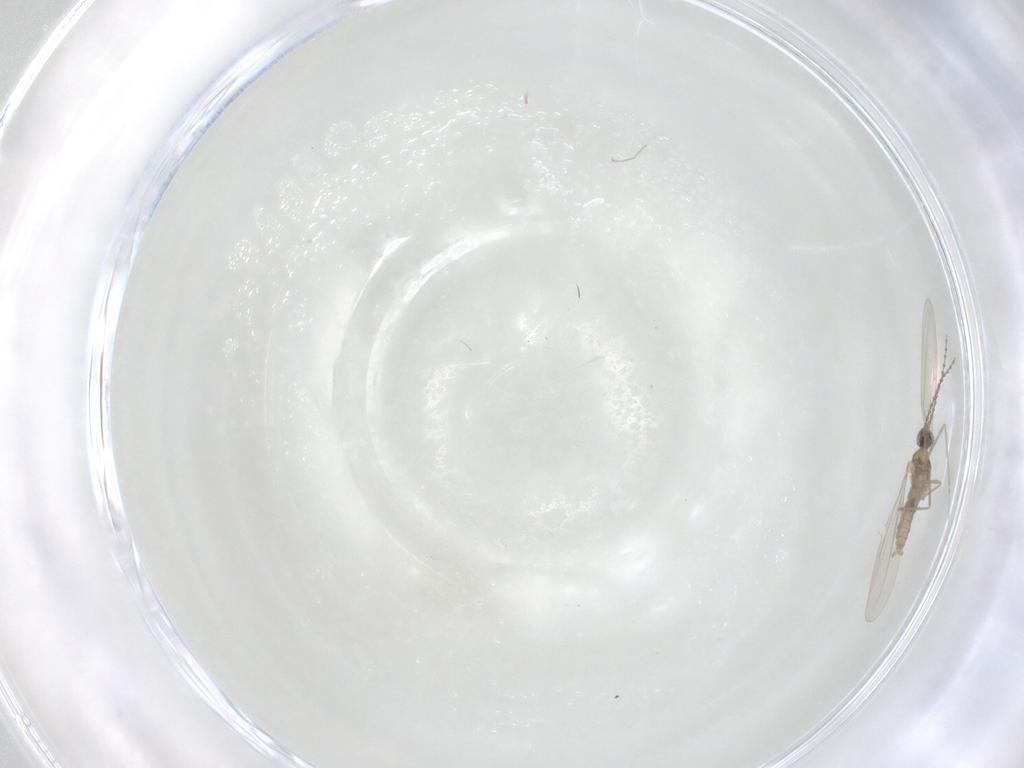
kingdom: Animalia
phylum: Arthropoda
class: Insecta
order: Diptera
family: Cecidomyiidae
